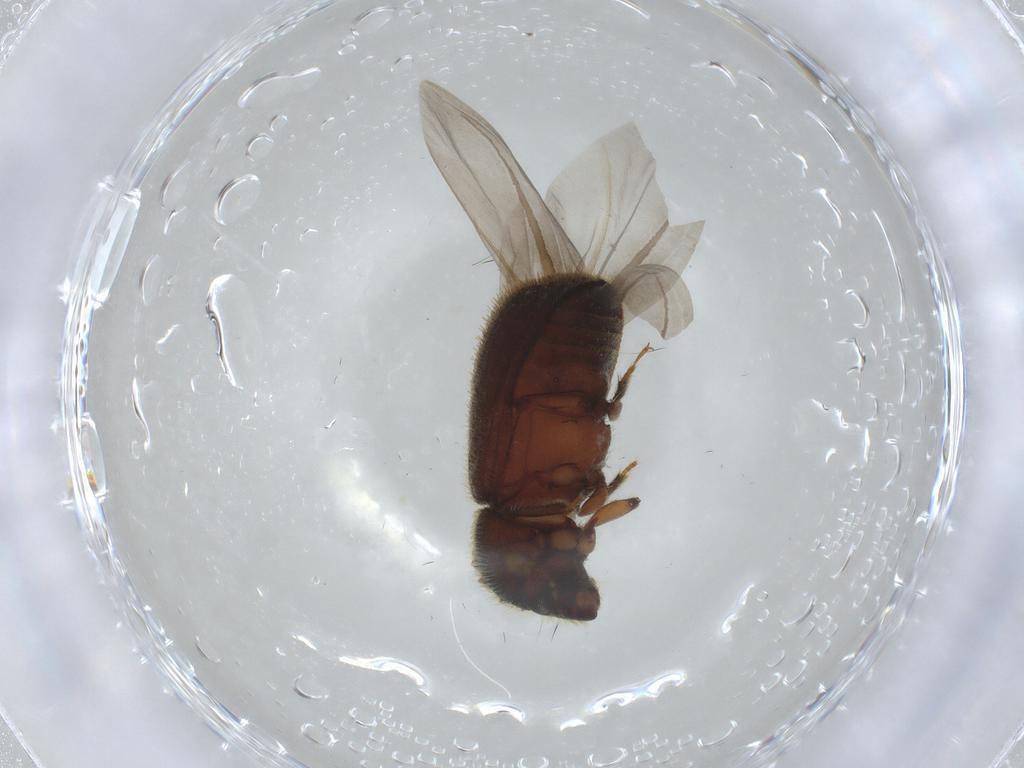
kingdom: Animalia
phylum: Arthropoda
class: Insecta
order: Coleoptera
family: Curculionidae
